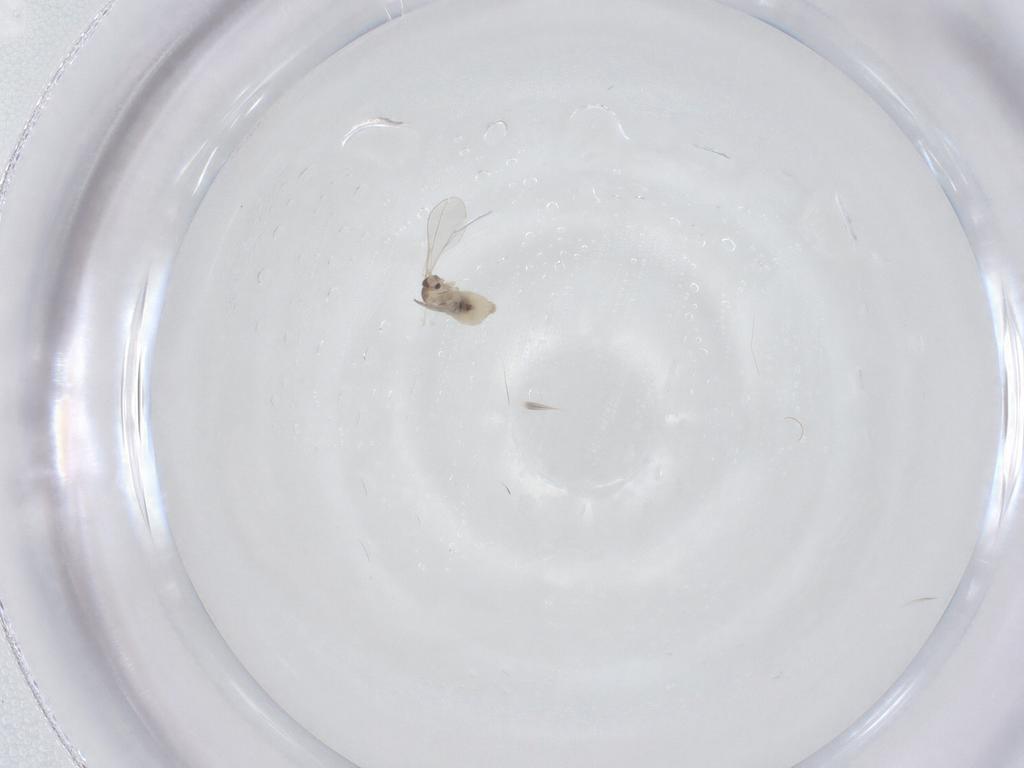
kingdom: Animalia
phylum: Arthropoda
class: Insecta
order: Diptera
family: Cecidomyiidae
